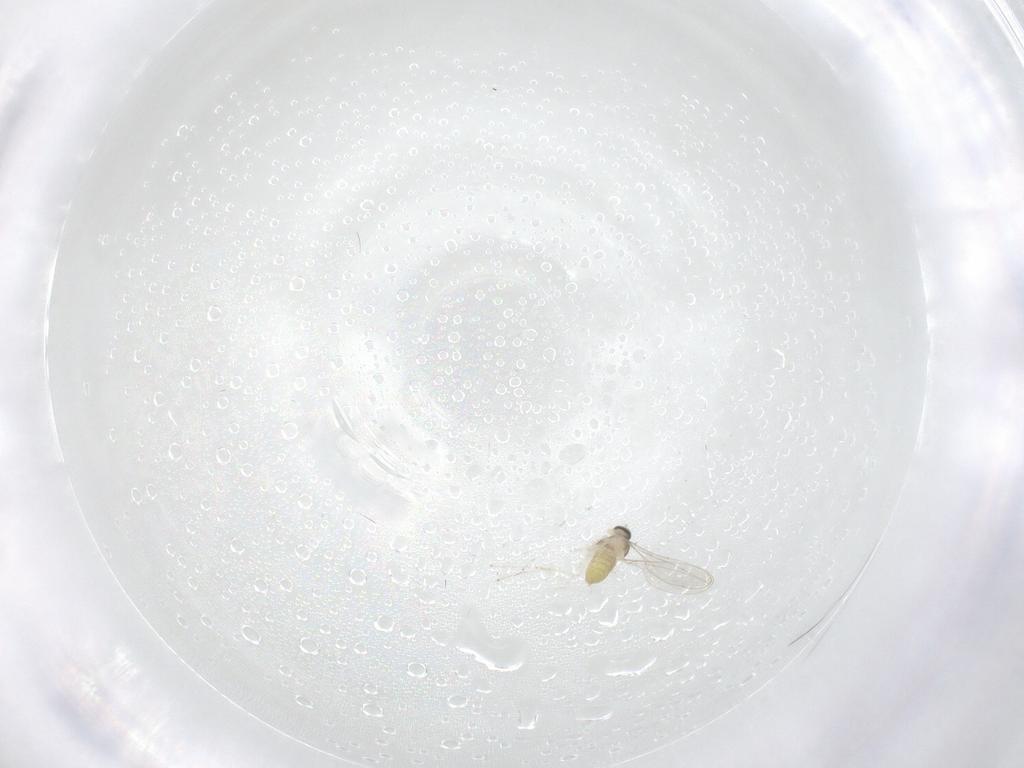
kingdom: Animalia
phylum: Arthropoda
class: Insecta
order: Diptera
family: Cecidomyiidae
